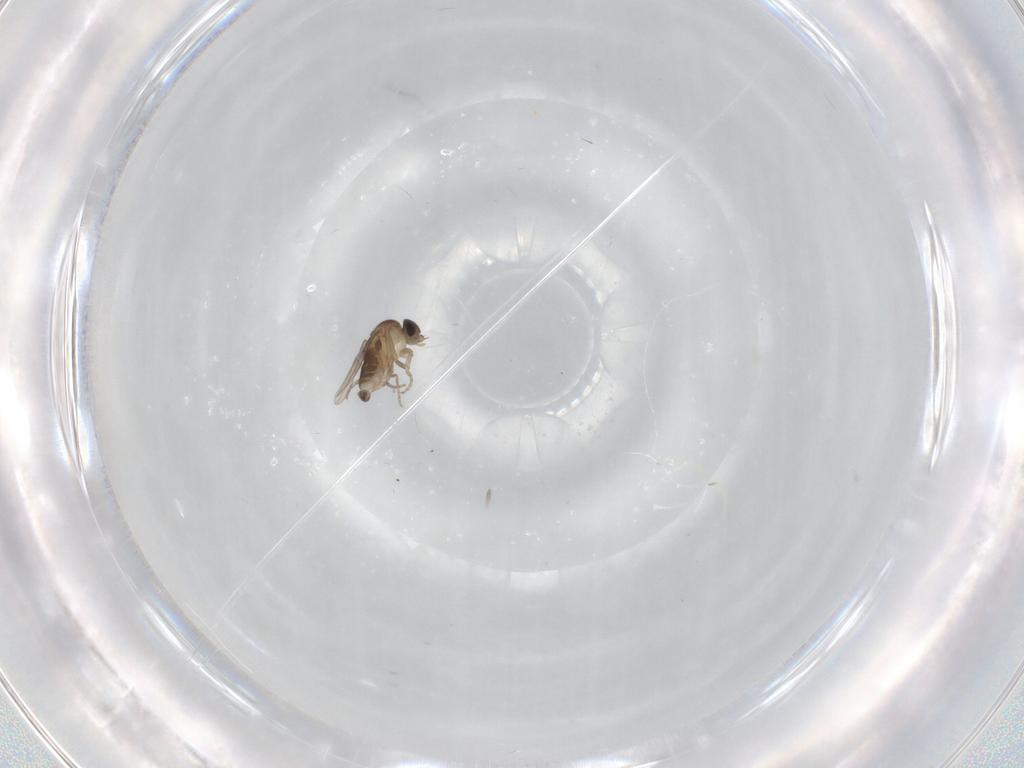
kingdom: Animalia
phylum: Arthropoda
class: Insecta
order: Diptera
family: Phoridae
